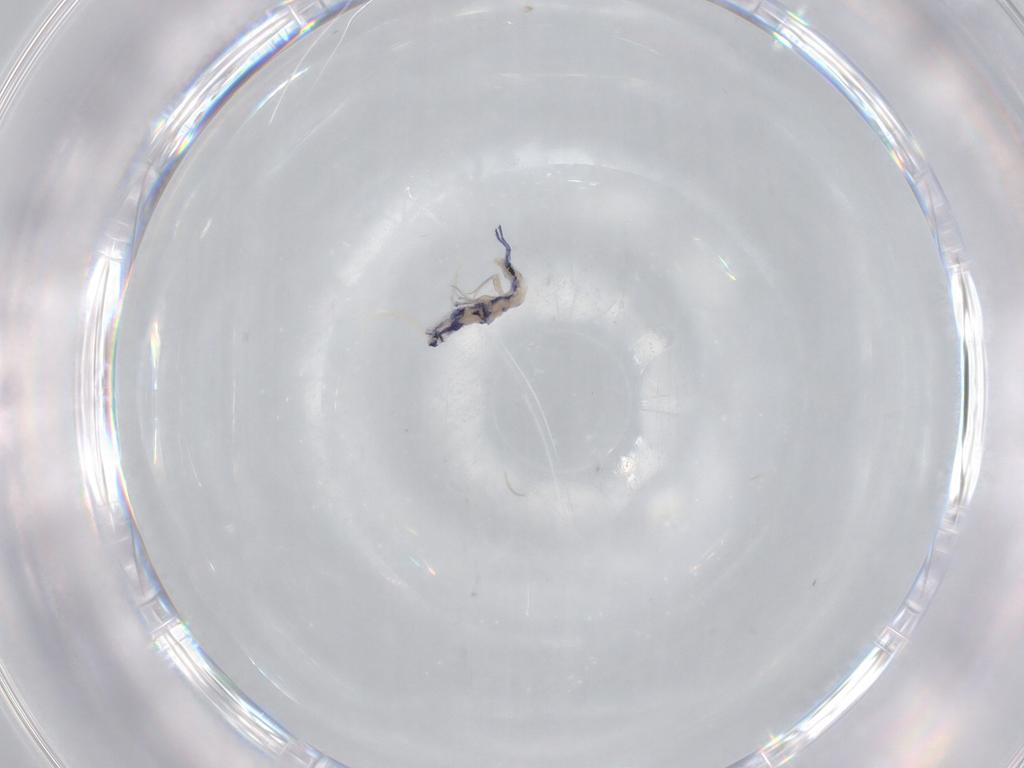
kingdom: Animalia
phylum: Arthropoda
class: Collembola
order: Entomobryomorpha
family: Entomobryidae
